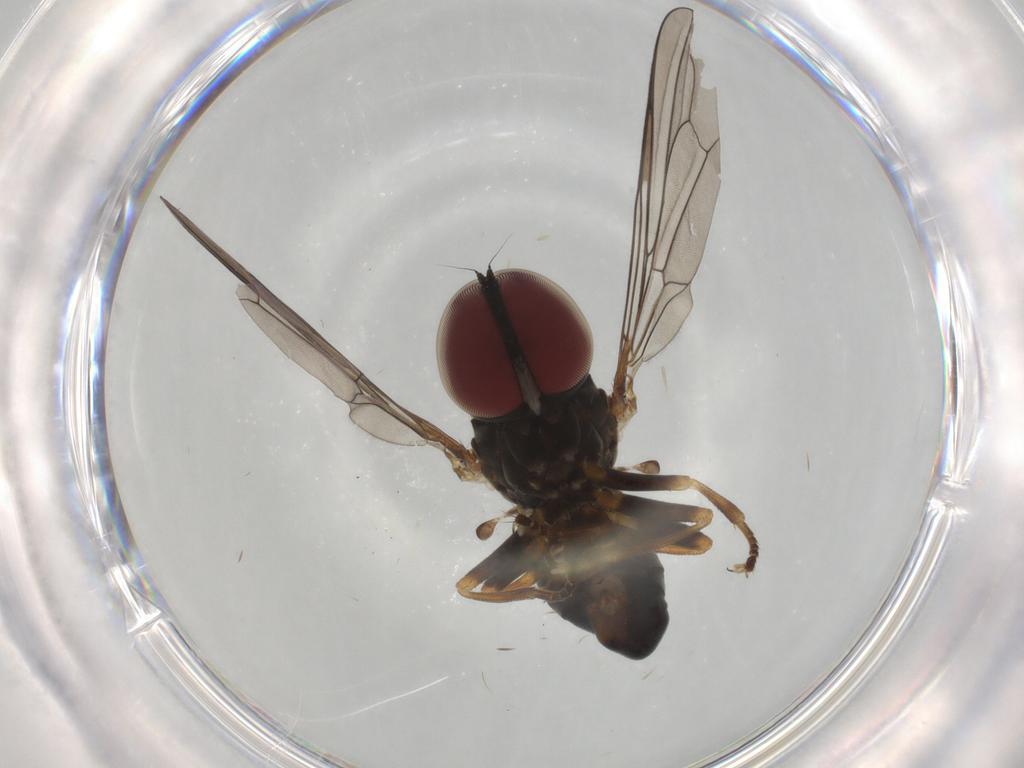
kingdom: Animalia
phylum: Arthropoda
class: Insecta
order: Diptera
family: Pipunculidae
